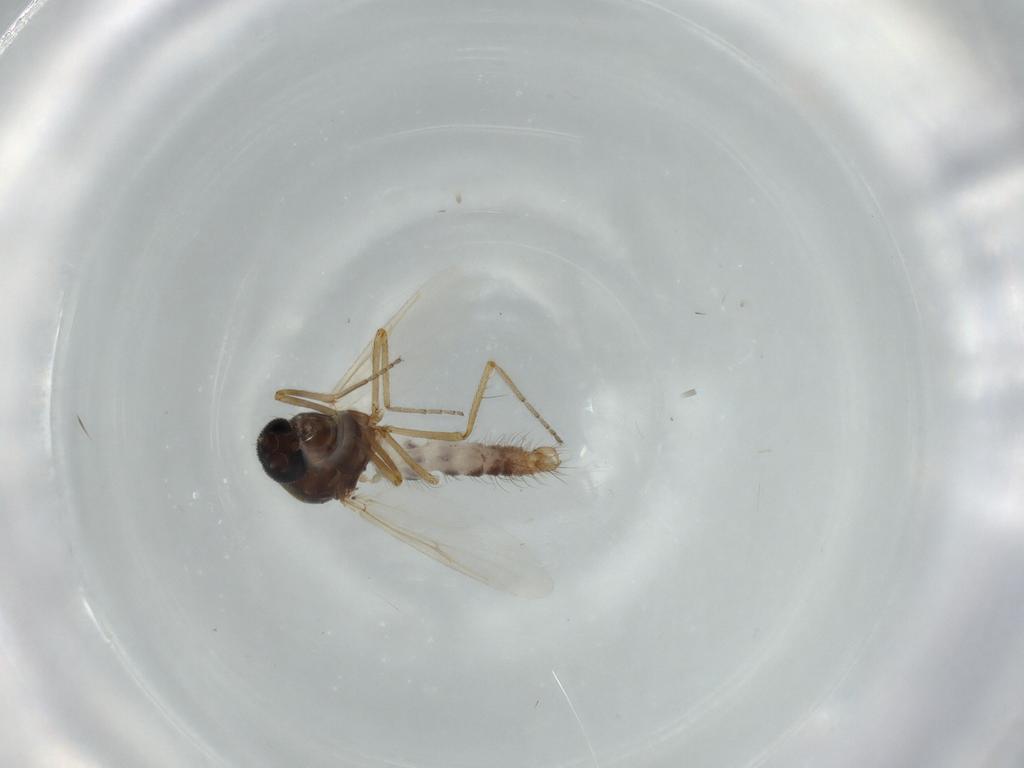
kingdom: Animalia
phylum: Arthropoda
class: Insecta
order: Diptera
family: Ceratopogonidae
